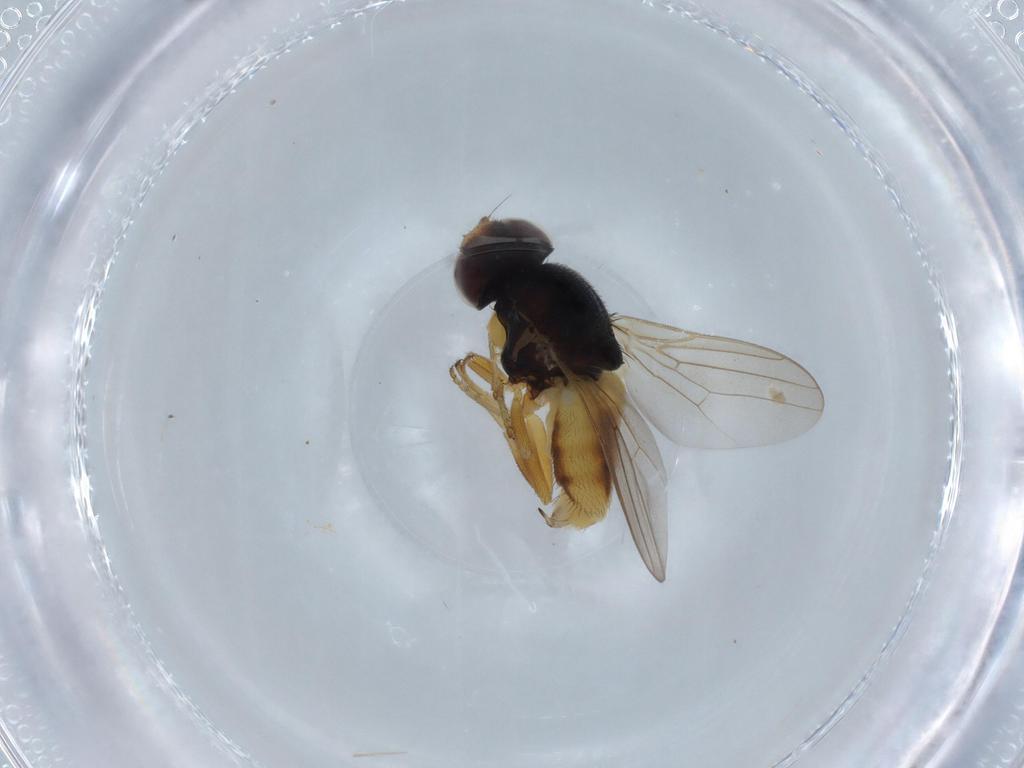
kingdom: Animalia
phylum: Arthropoda
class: Insecta
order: Diptera
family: Chloropidae
